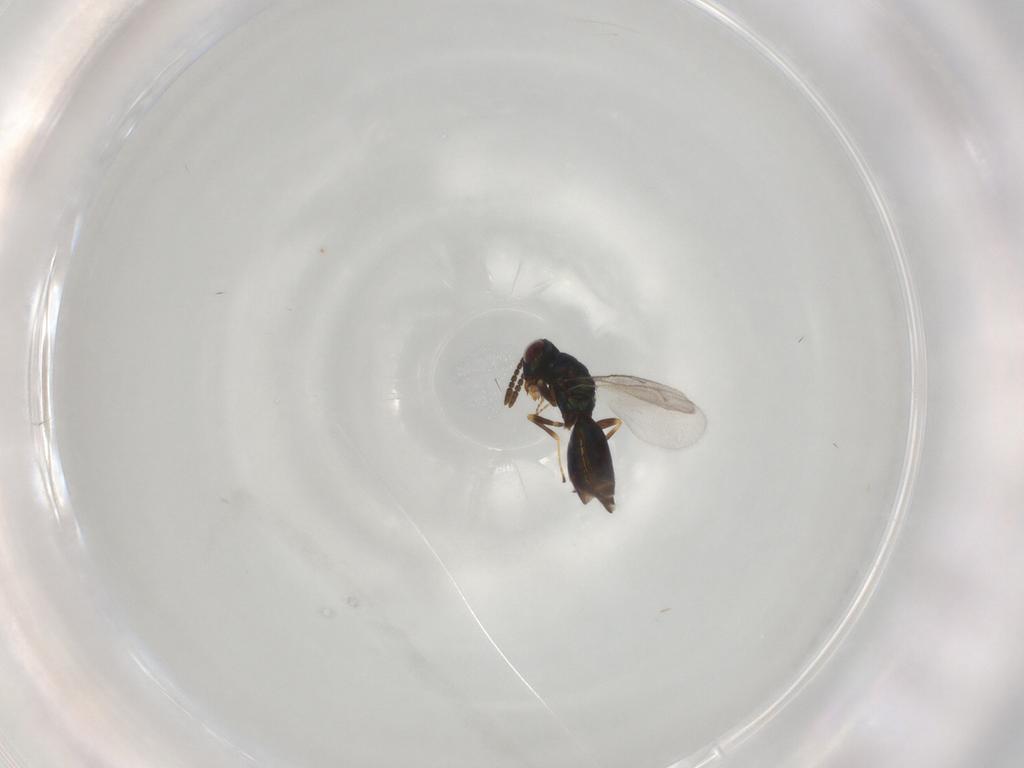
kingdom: Animalia
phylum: Arthropoda
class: Insecta
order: Hymenoptera
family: Pteromalidae
